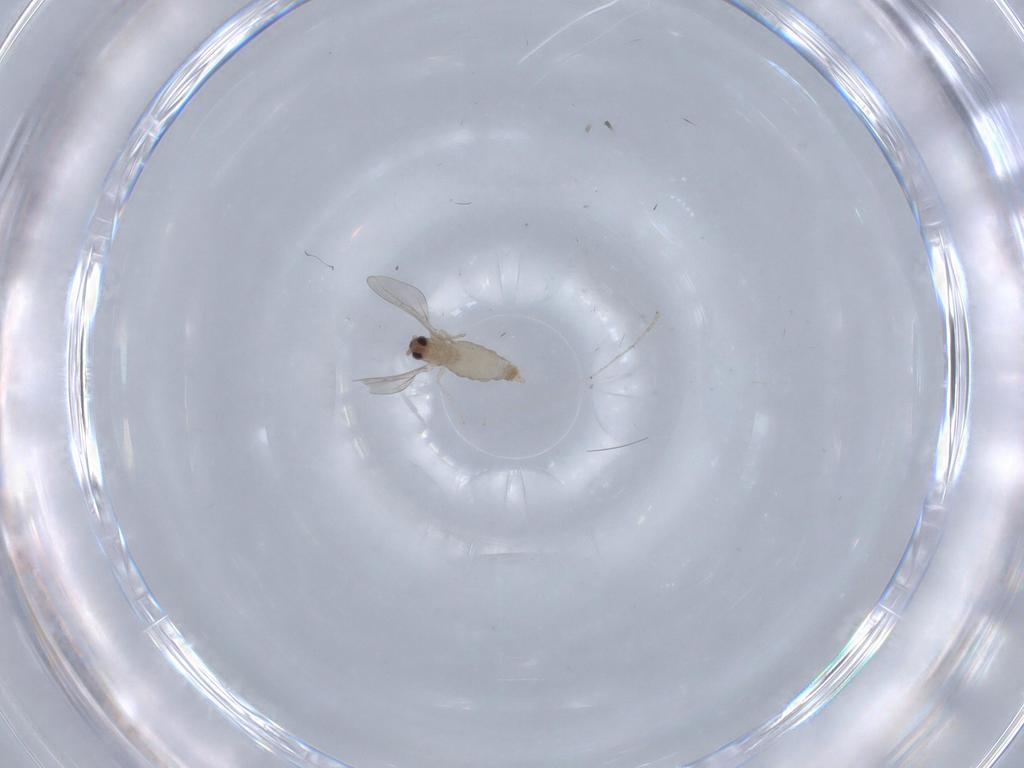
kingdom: Animalia
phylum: Arthropoda
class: Insecta
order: Diptera
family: Cecidomyiidae
